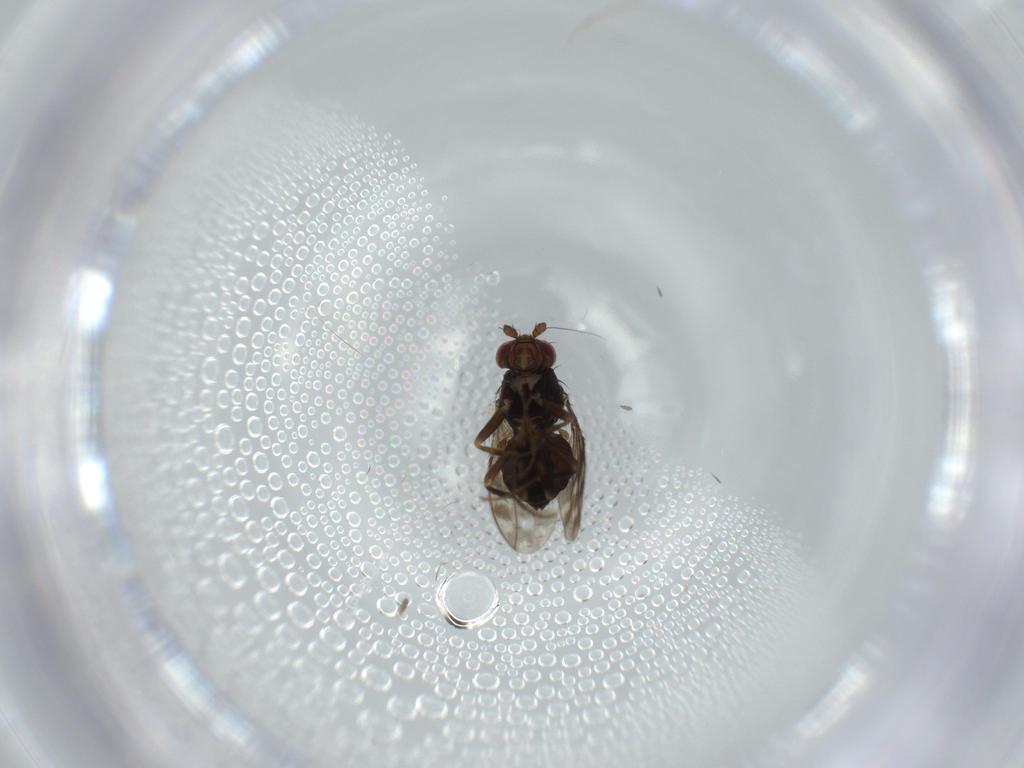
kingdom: Animalia
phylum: Arthropoda
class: Insecta
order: Diptera
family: Sphaeroceridae
